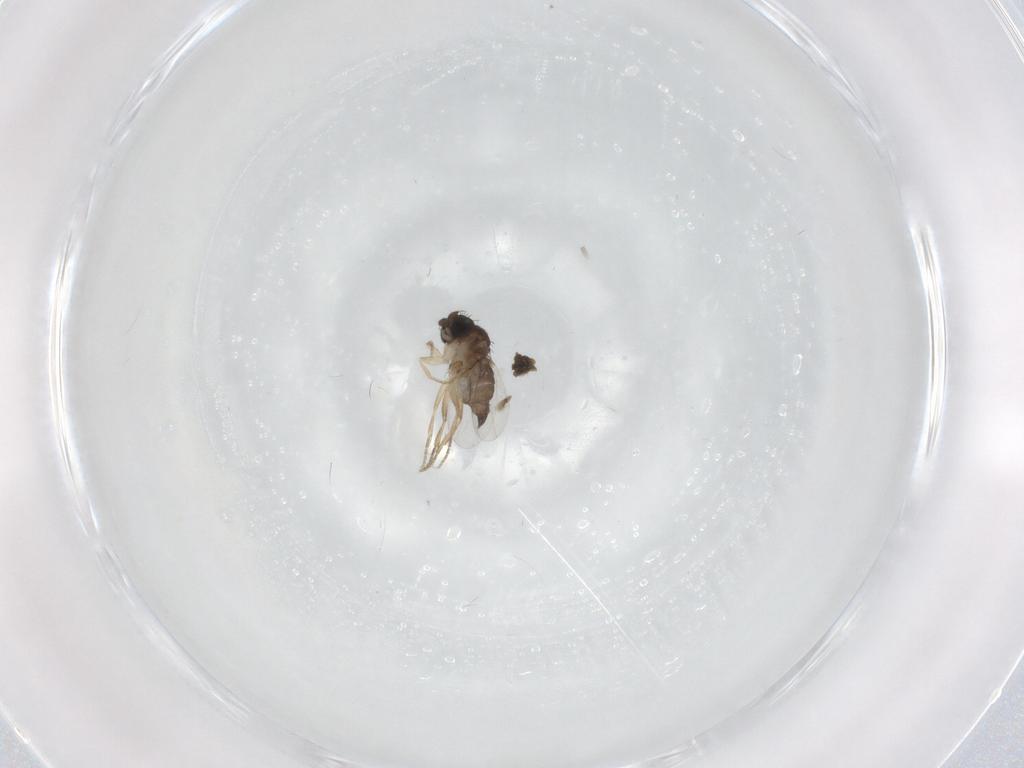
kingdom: Animalia
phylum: Arthropoda
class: Insecta
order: Diptera
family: Phoridae
